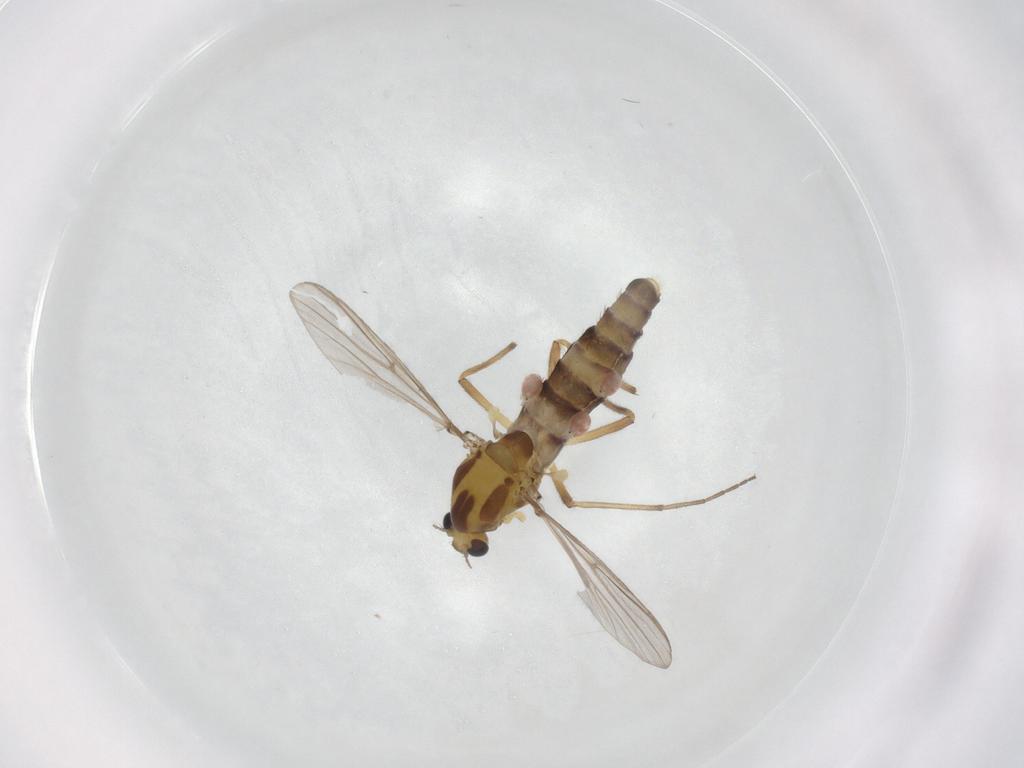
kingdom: Animalia
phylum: Arthropoda
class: Insecta
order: Diptera
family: Chironomidae
